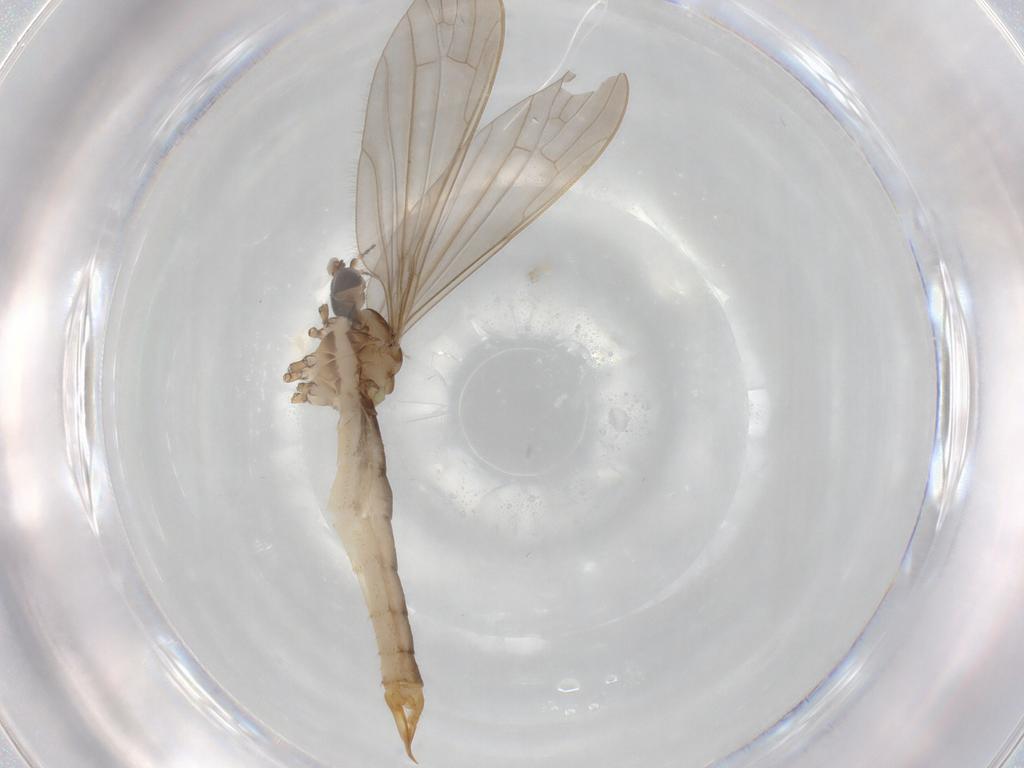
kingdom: Animalia
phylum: Arthropoda
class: Insecta
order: Diptera
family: Limoniidae
